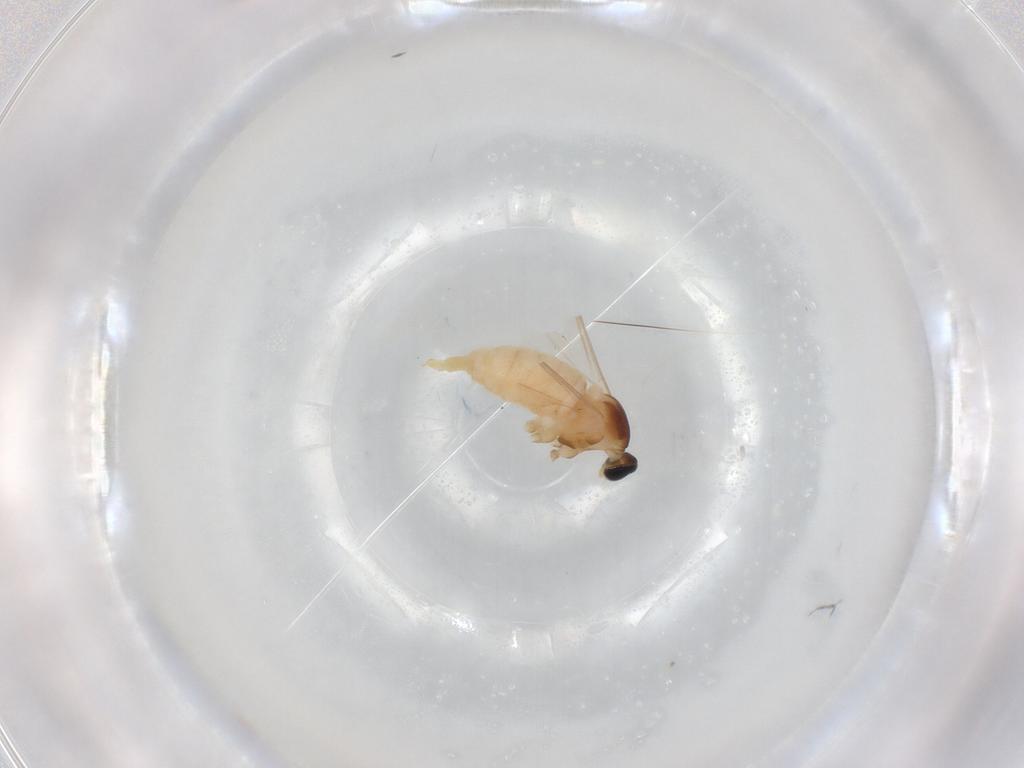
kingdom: Animalia
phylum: Arthropoda
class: Insecta
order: Diptera
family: Cecidomyiidae
